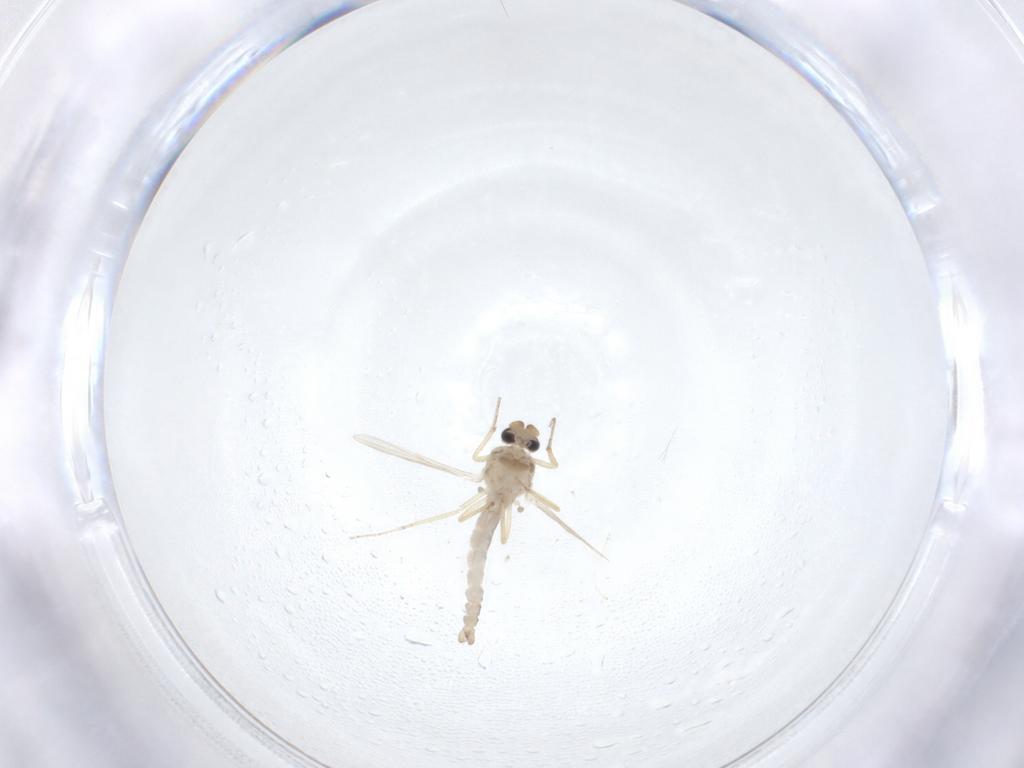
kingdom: Animalia
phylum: Arthropoda
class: Insecta
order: Diptera
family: Ceratopogonidae
